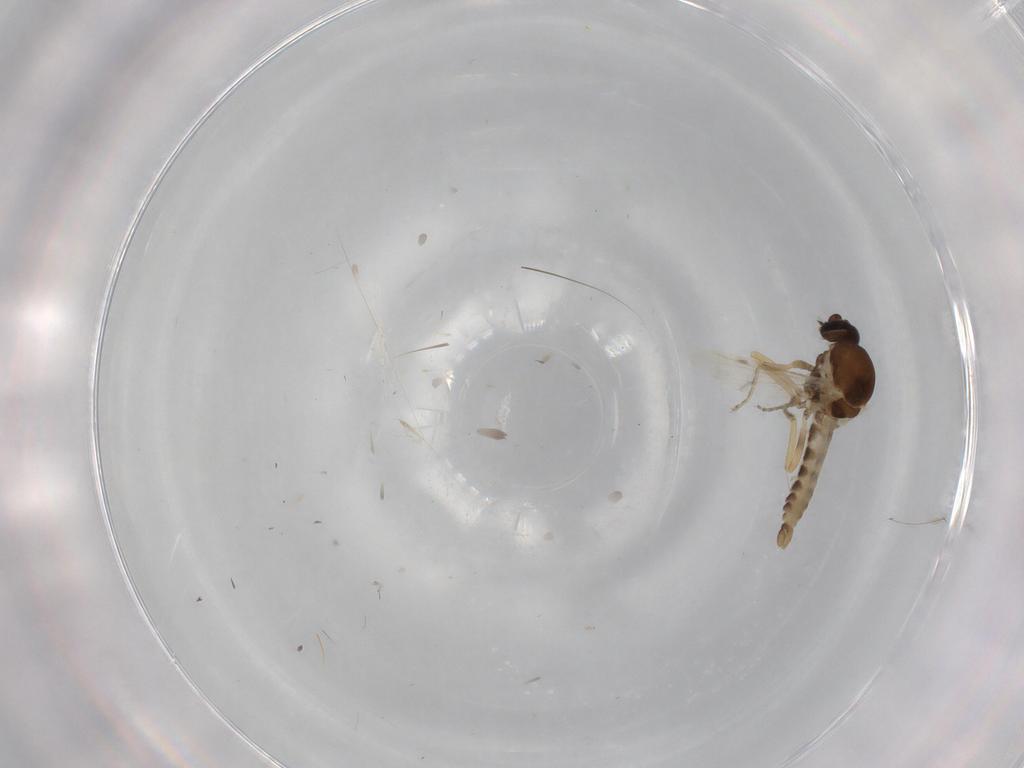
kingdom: Animalia
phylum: Arthropoda
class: Insecta
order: Diptera
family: Ceratopogonidae
